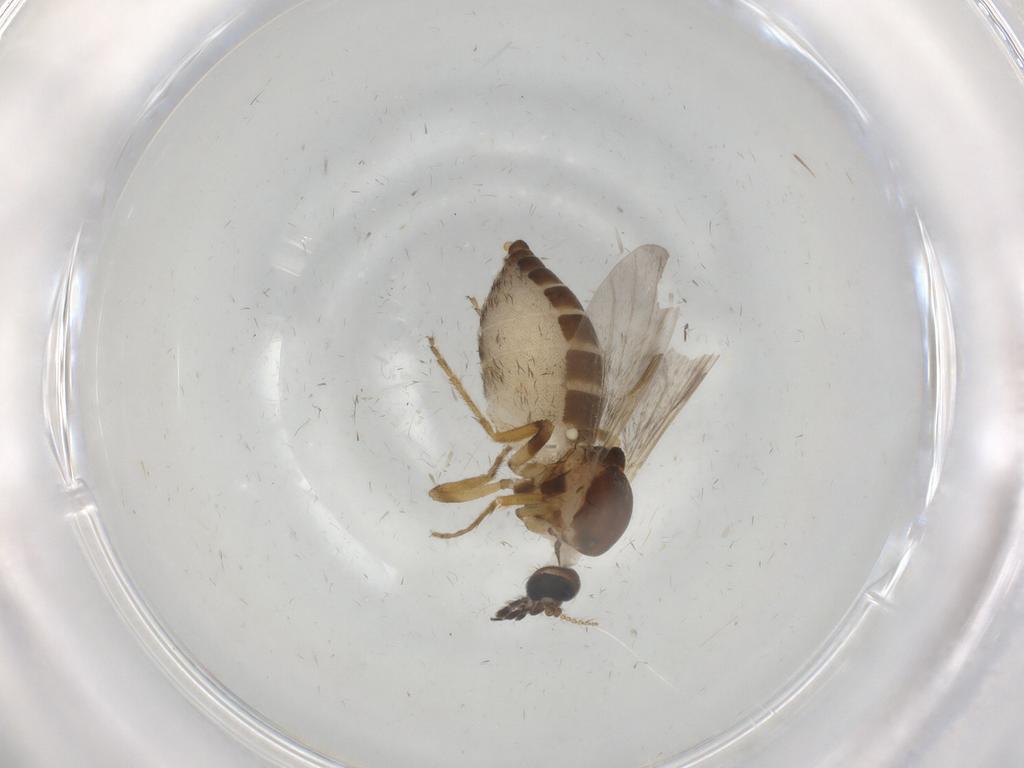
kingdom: Animalia
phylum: Arthropoda
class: Insecta
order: Diptera
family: Ceratopogonidae
